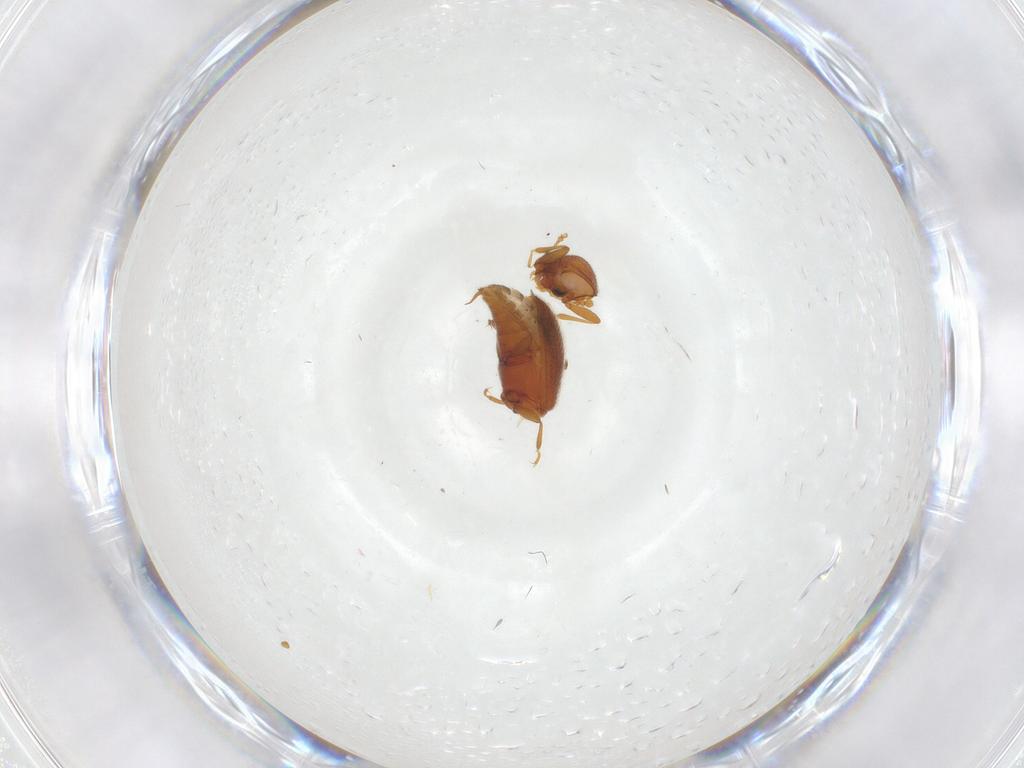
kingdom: Animalia
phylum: Arthropoda
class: Insecta
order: Coleoptera
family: Latridiidae
